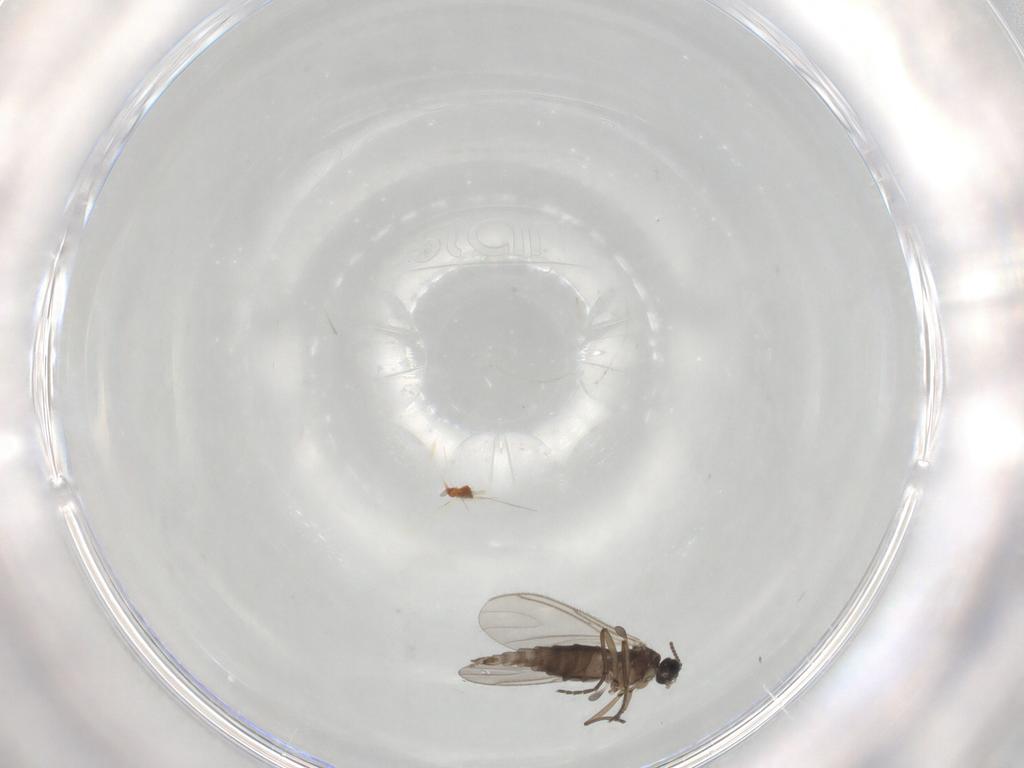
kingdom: Animalia
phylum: Arthropoda
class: Insecta
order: Diptera
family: Sciaridae
